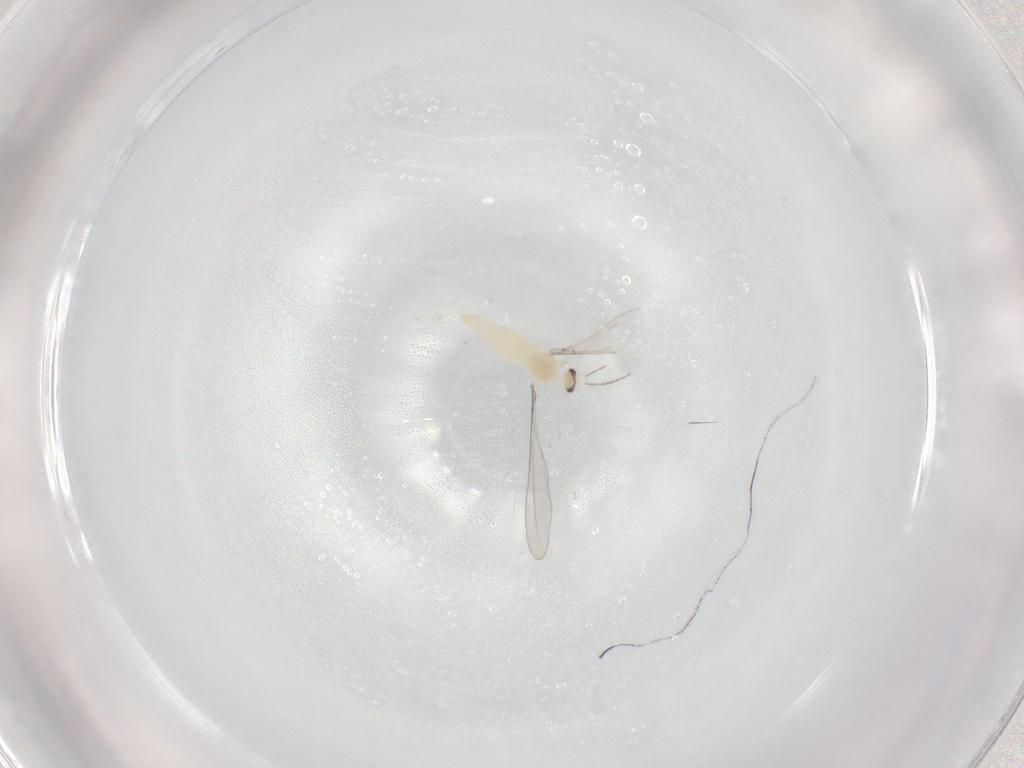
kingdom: Animalia
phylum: Arthropoda
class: Insecta
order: Diptera
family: Cecidomyiidae
